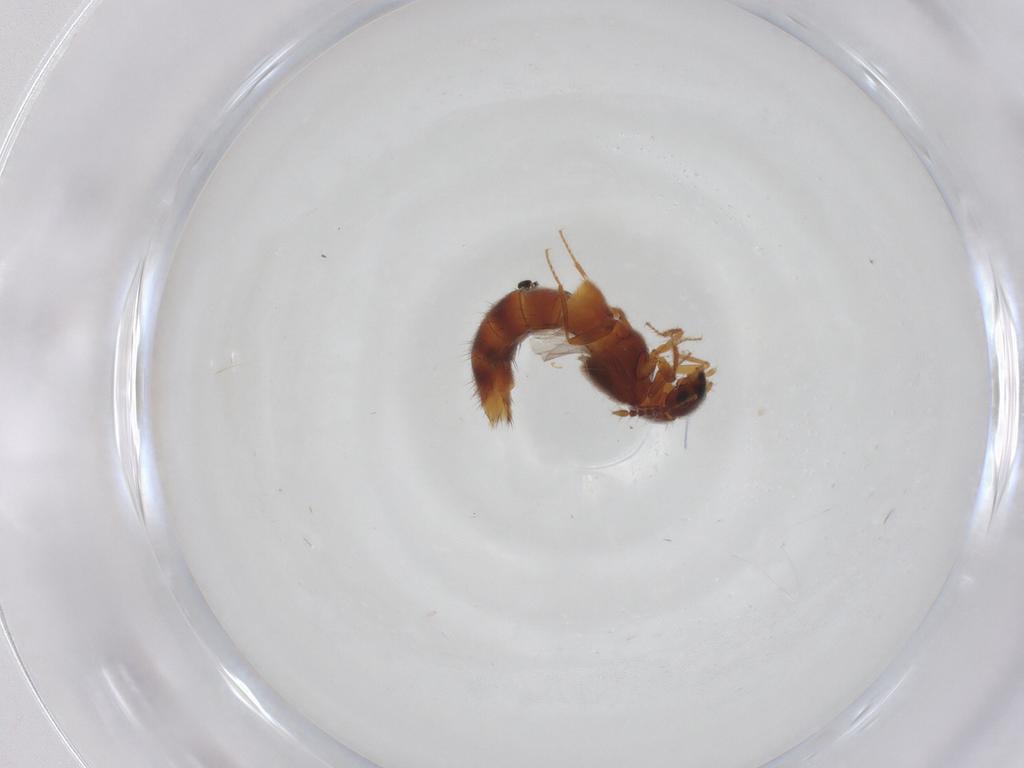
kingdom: Animalia
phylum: Arthropoda
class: Insecta
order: Coleoptera
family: Staphylinidae
